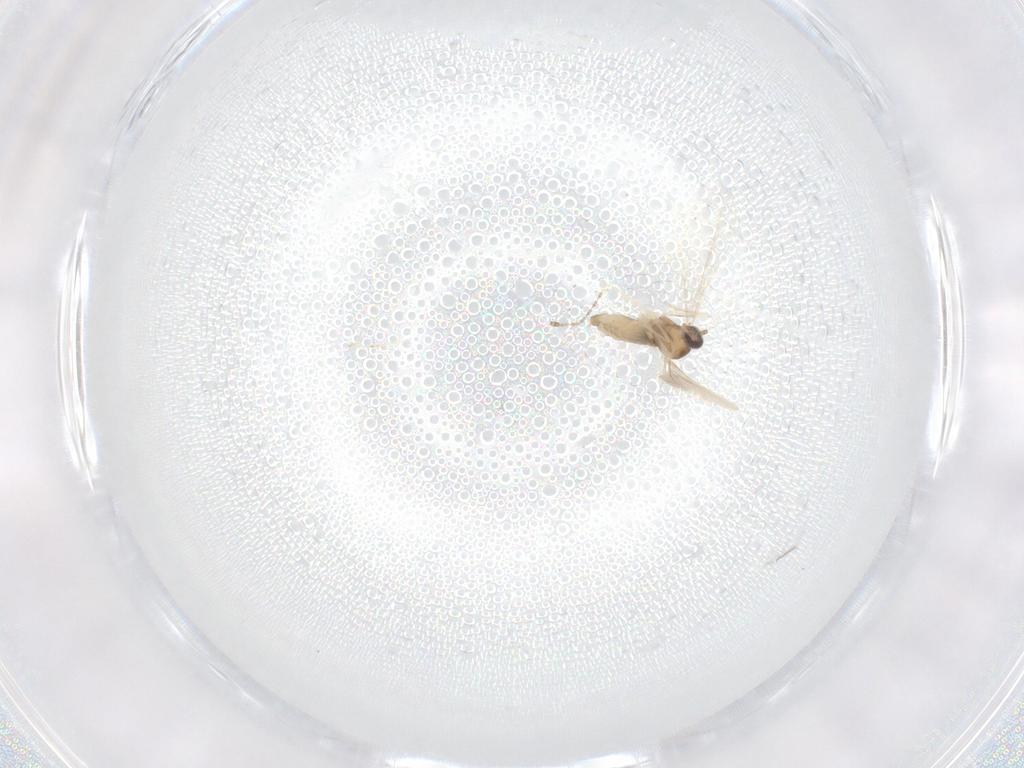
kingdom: Animalia
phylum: Arthropoda
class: Insecta
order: Diptera
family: Cecidomyiidae
